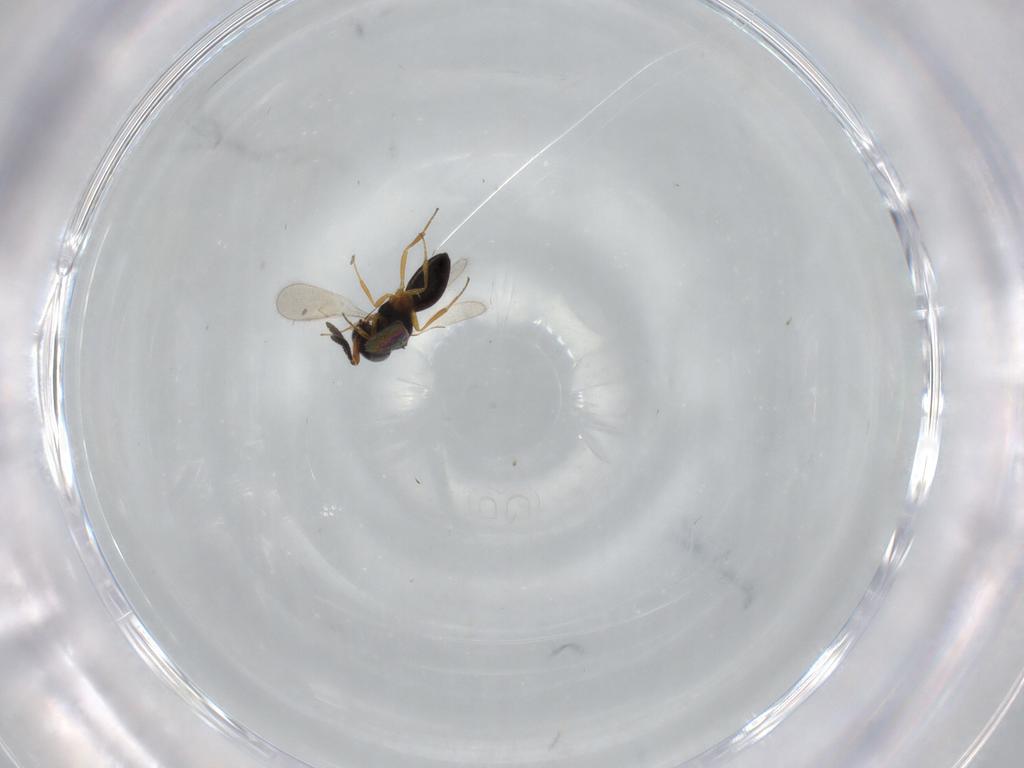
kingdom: Animalia
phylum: Arthropoda
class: Insecta
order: Hymenoptera
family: Scelionidae
